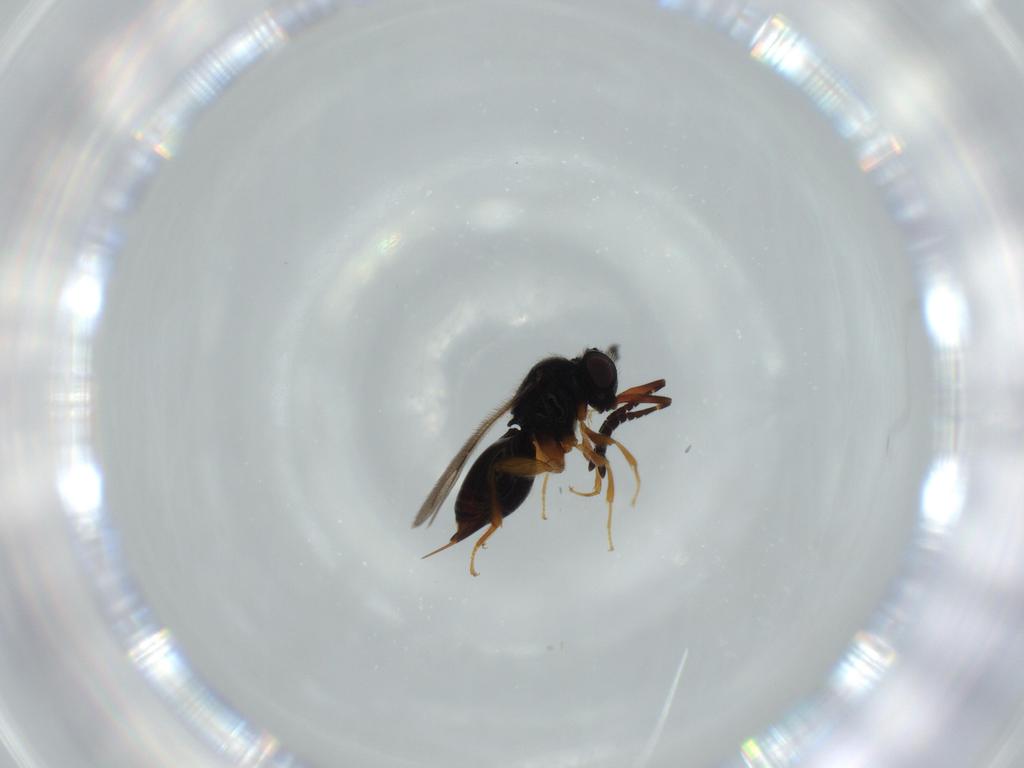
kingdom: Animalia
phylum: Arthropoda
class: Insecta
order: Hymenoptera
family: Ceraphronidae
